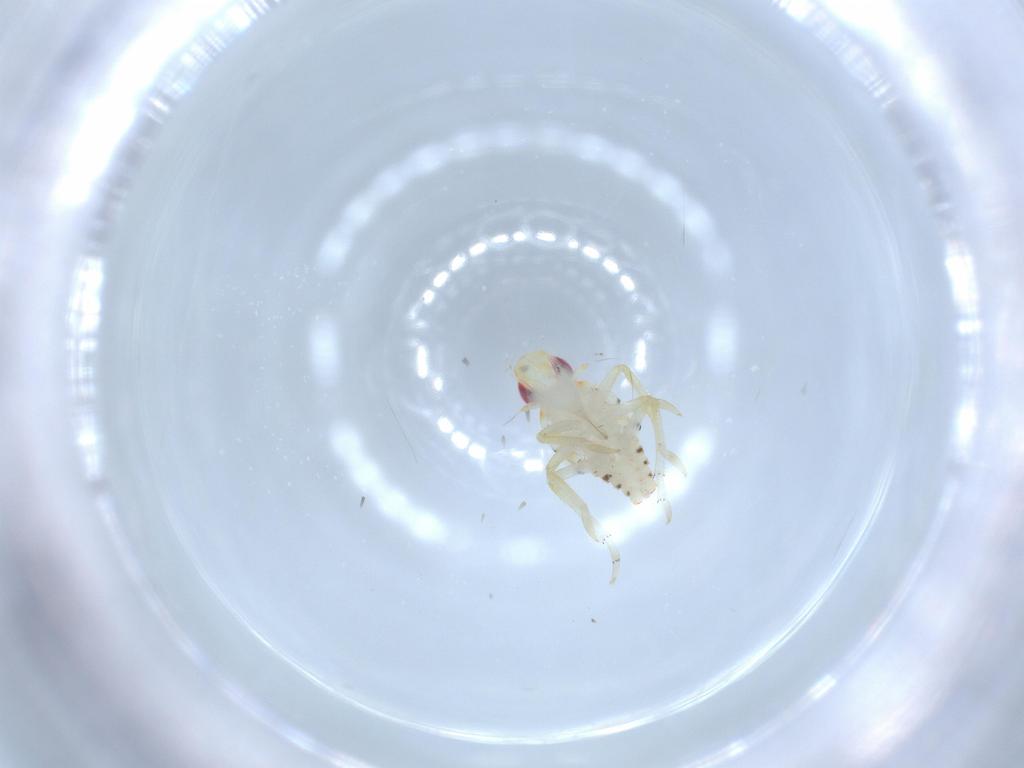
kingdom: Animalia
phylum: Arthropoda
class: Insecta
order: Hemiptera
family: Tropiduchidae
